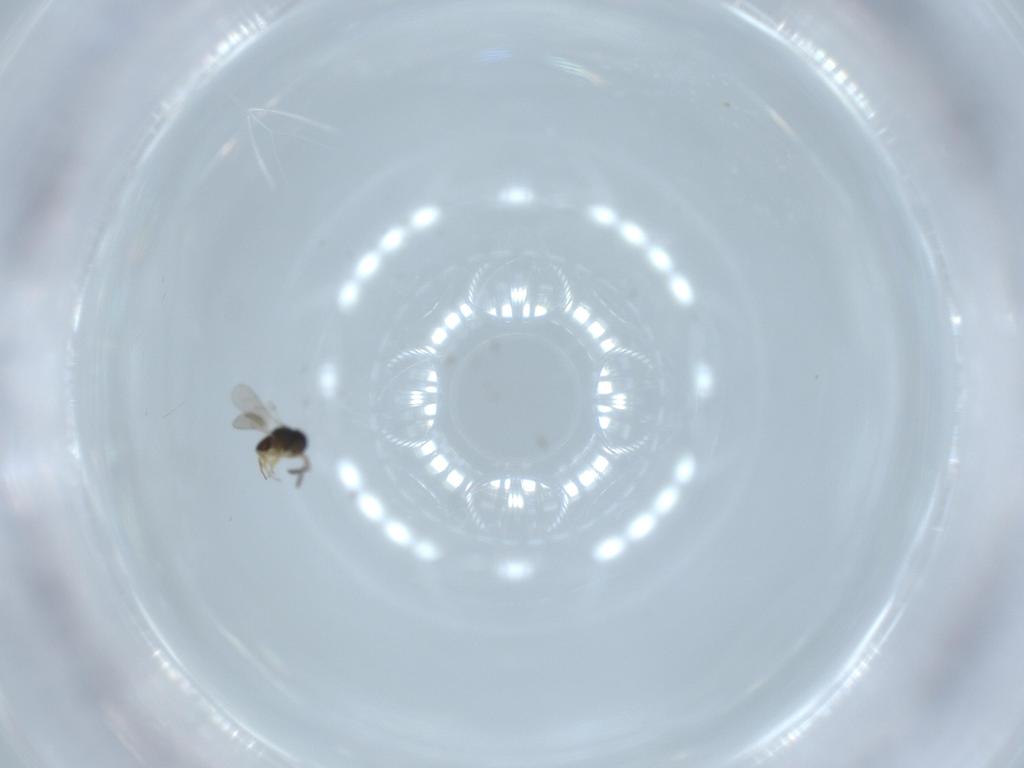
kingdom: Animalia
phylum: Arthropoda
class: Insecta
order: Hymenoptera
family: Scelionidae
